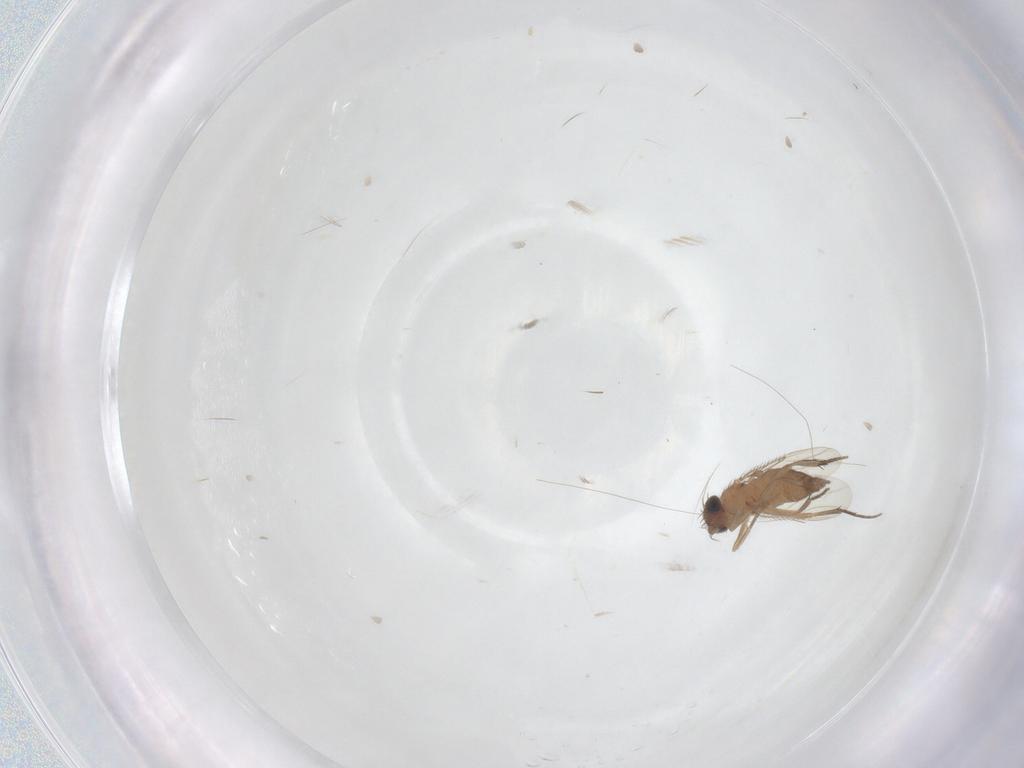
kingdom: Animalia
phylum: Arthropoda
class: Insecta
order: Diptera
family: Phoridae
